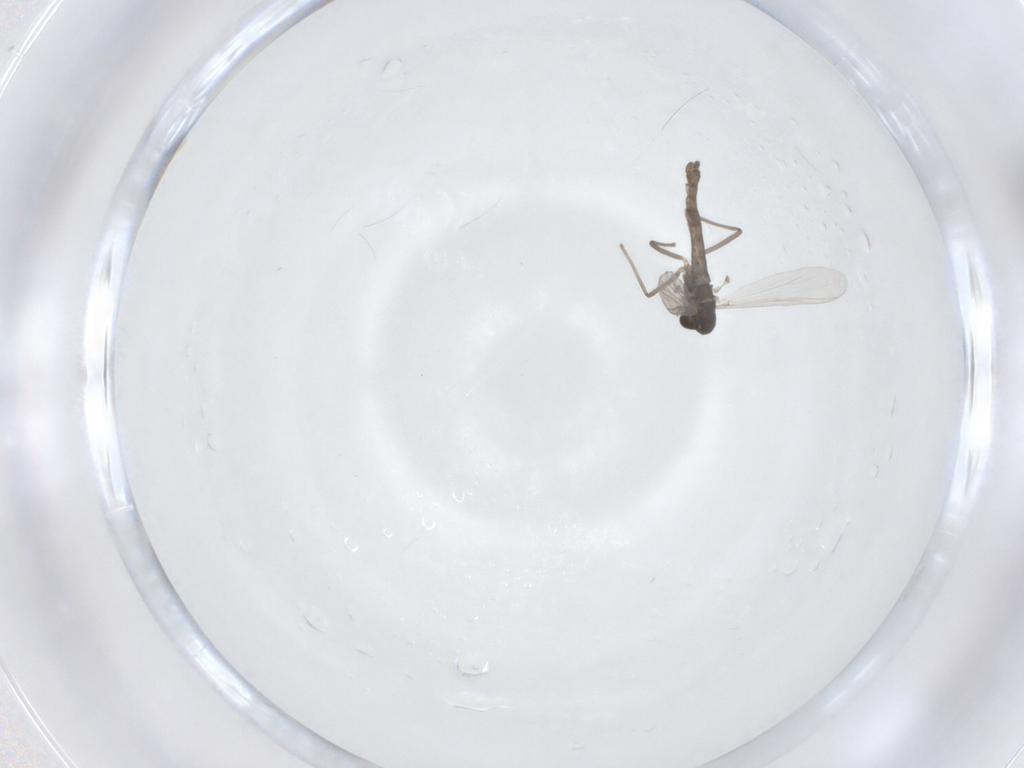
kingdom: Animalia
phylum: Arthropoda
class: Insecta
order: Diptera
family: Chironomidae
